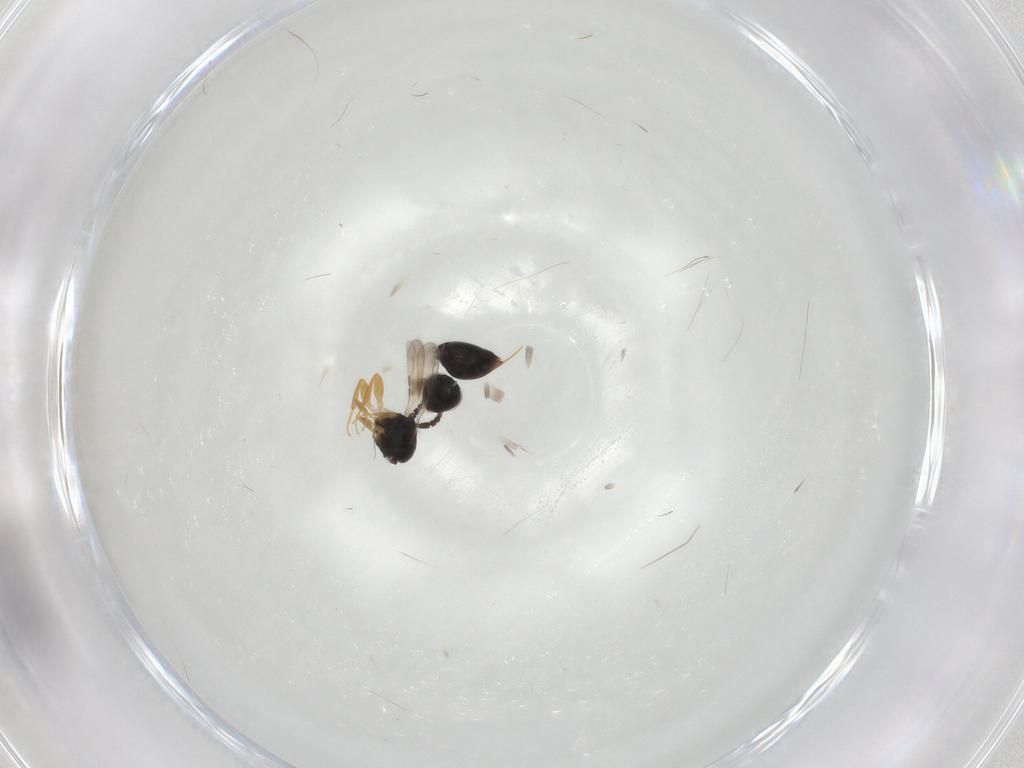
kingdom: Animalia
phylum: Arthropoda
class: Insecta
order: Hymenoptera
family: Ceraphronidae
